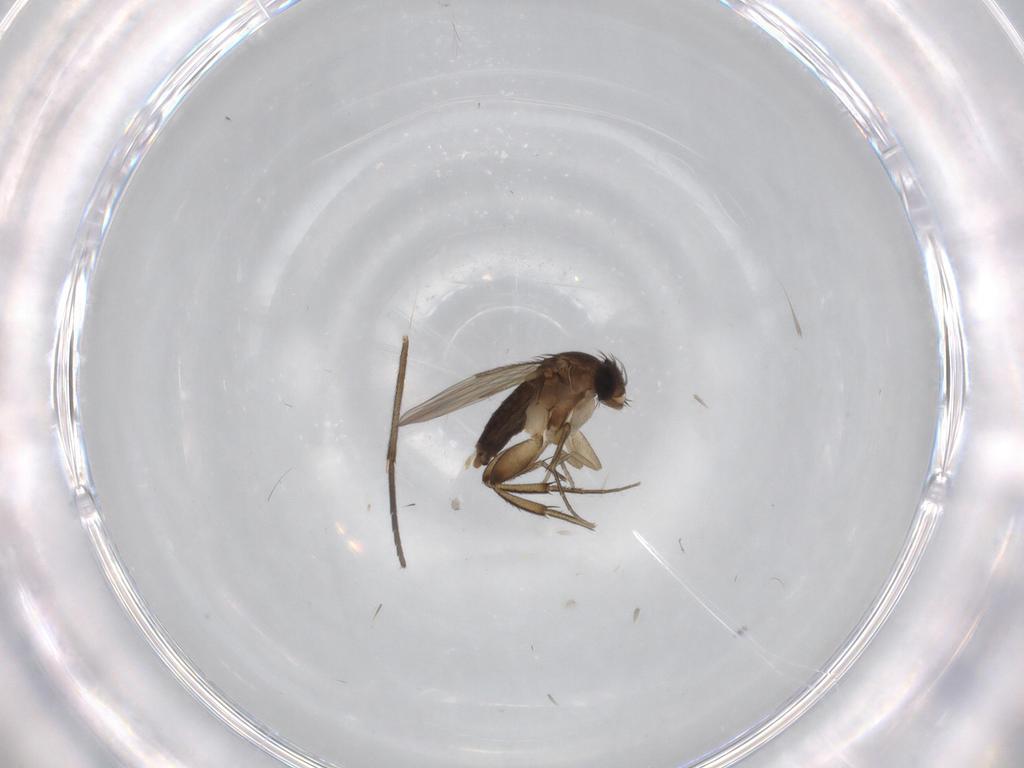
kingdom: Animalia
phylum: Arthropoda
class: Insecta
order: Diptera
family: Phoridae
